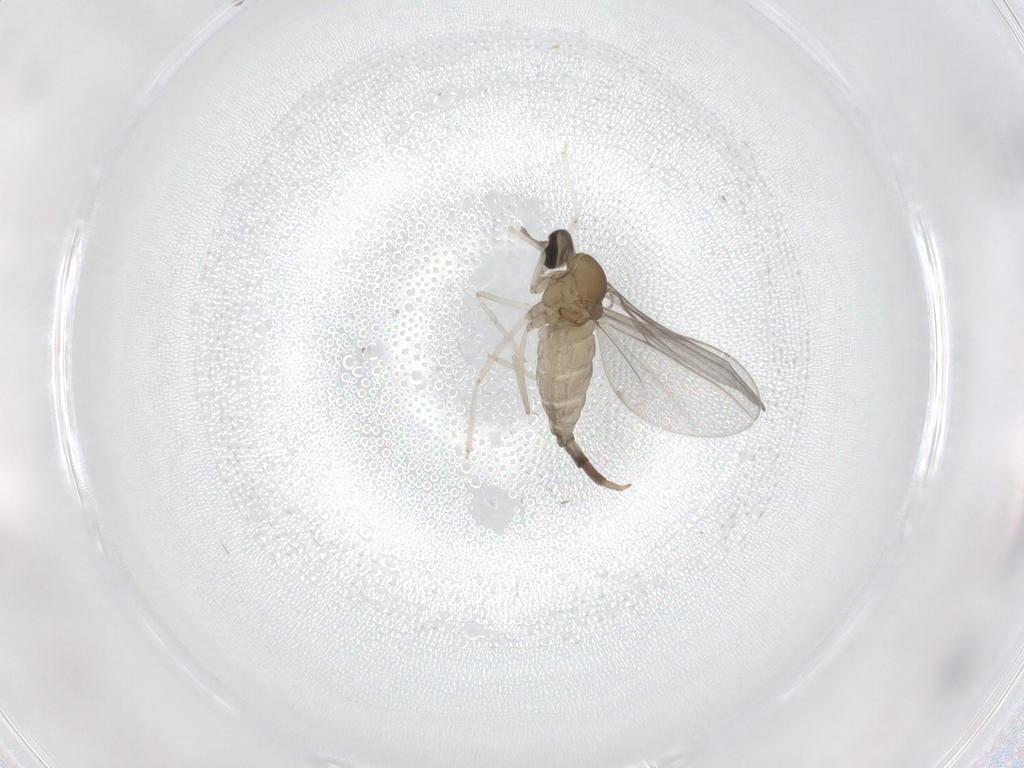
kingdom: Animalia
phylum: Arthropoda
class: Insecta
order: Diptera
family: Cecidomyiidae
